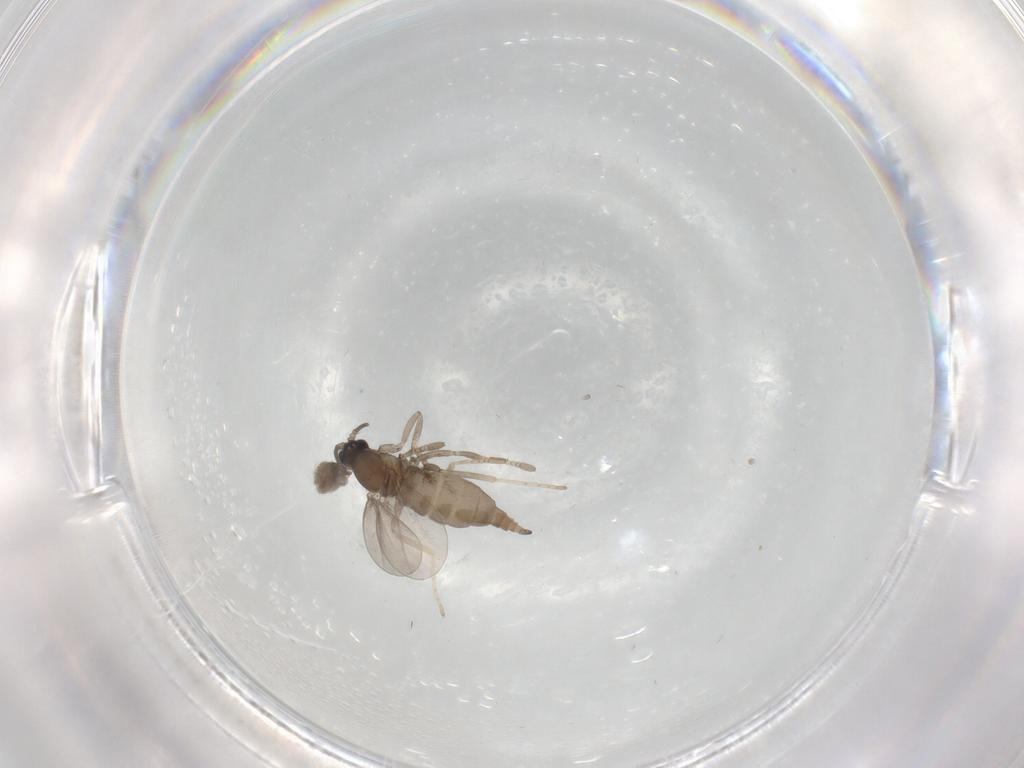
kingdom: Animalia
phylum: Arthropoda
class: Insecta
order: Diptera
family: Cecidomyiidae
